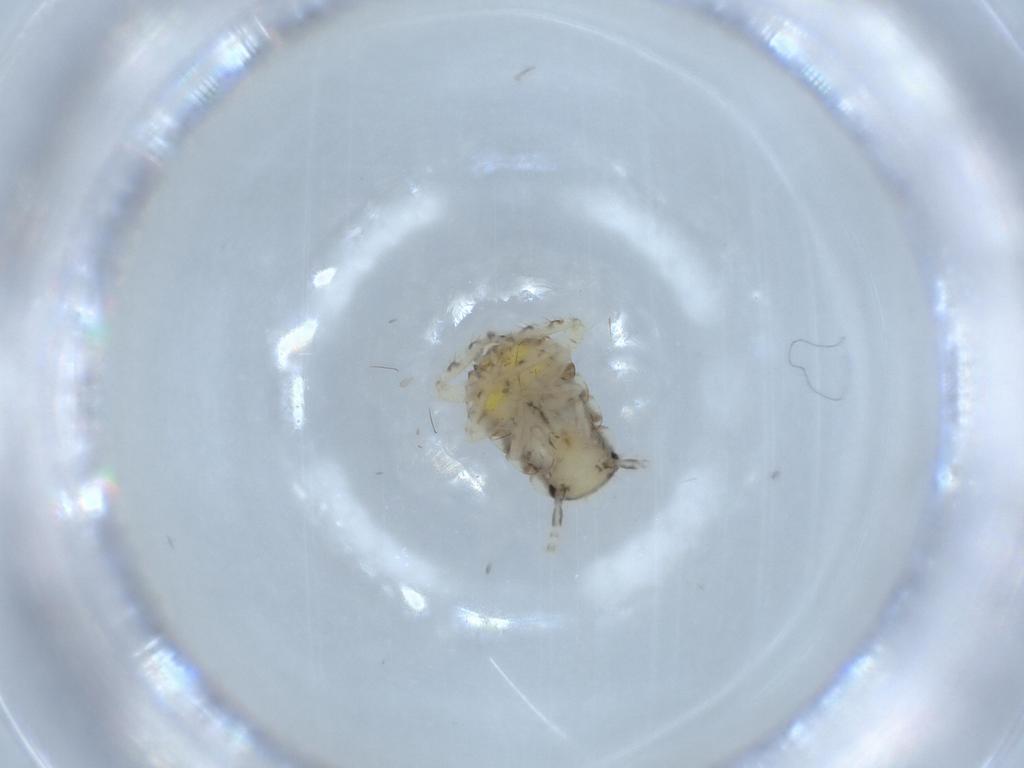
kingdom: Animalia
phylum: Arthropoda
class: Insecta
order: Blattodea
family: Ectobiidae
